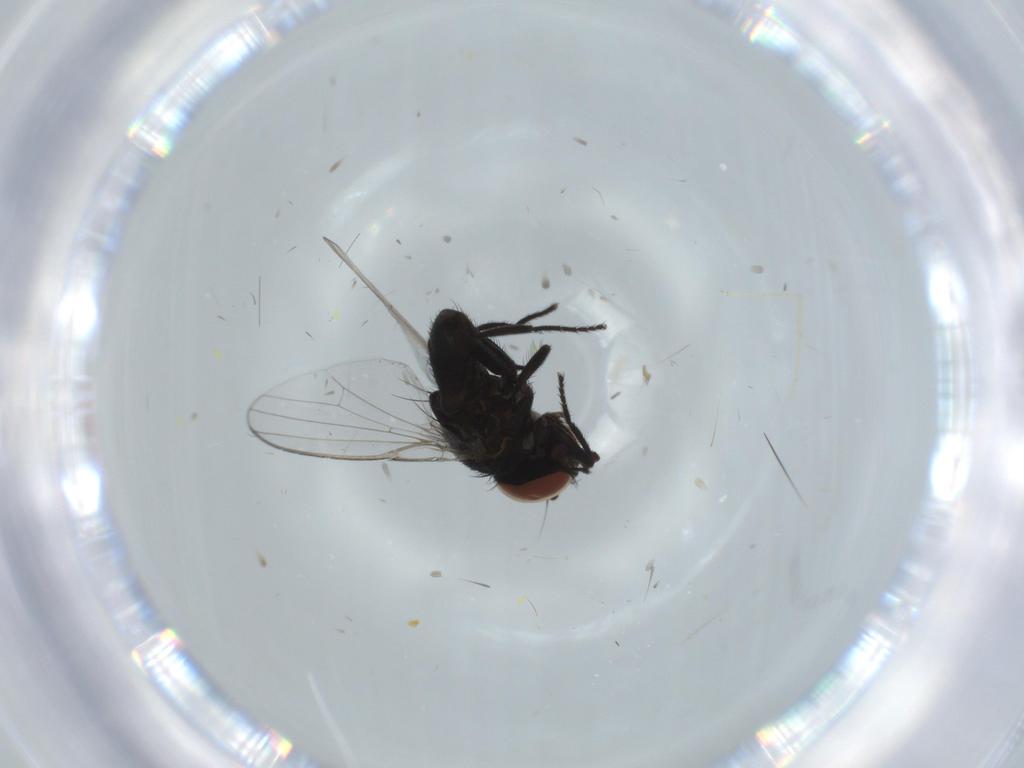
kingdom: Animalia
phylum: Arthropoda
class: Insecta
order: Diptera
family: Milichiidae
